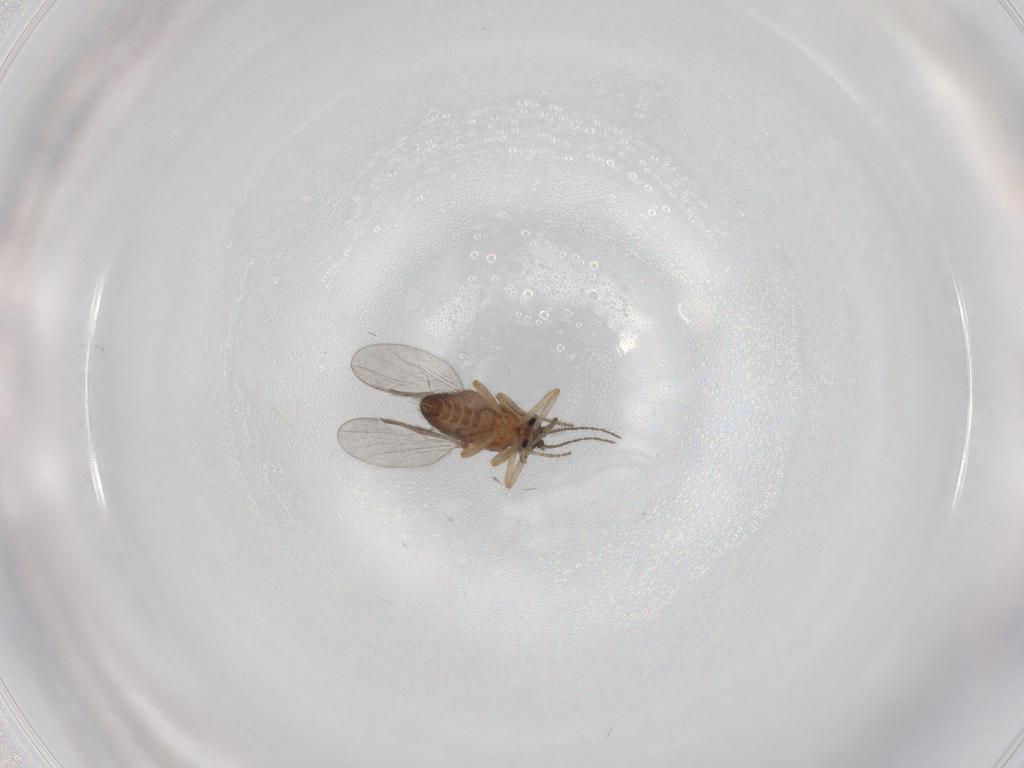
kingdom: Animalia
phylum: Arthropoda
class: Insecta
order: Diptera
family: Ceratopogonidae
